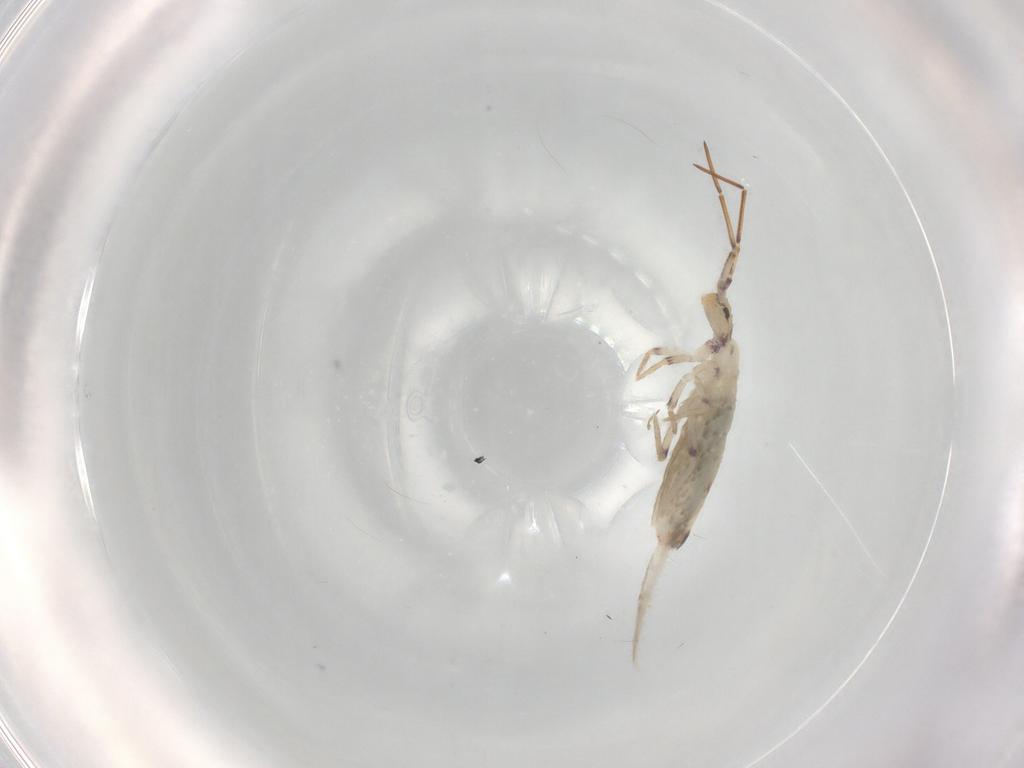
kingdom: Animalia
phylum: Arthropoda
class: Collembola
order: Entomobryomorpha
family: Entomobryidae
